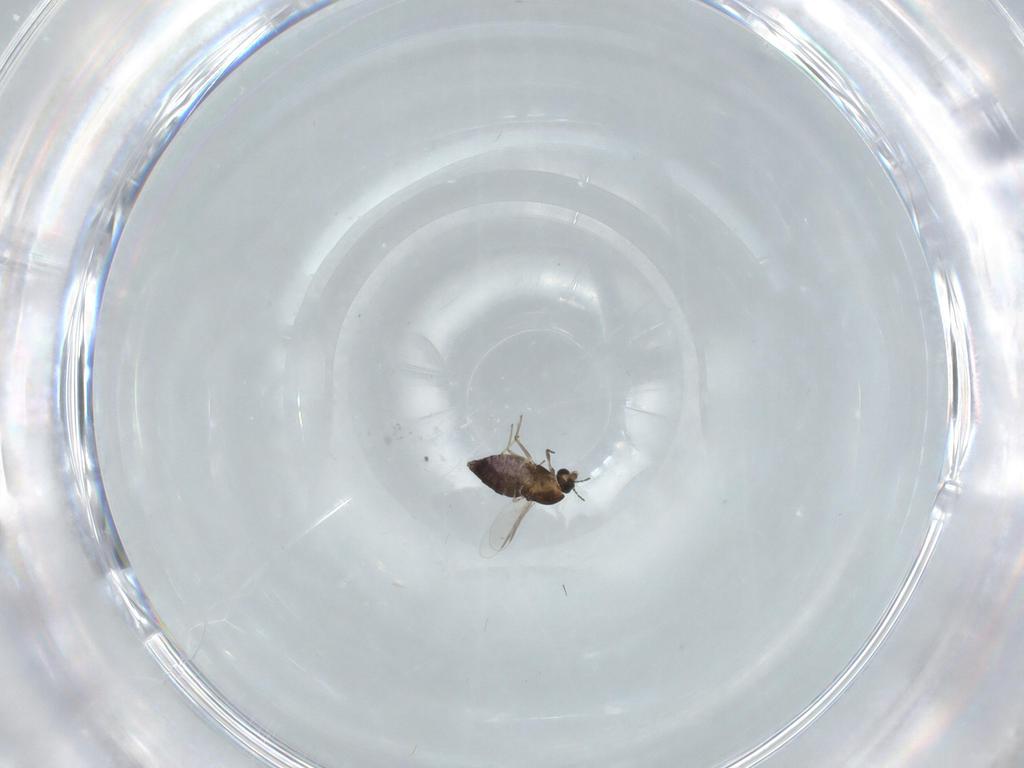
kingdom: Animalia
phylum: Arthropoda
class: Insecta
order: Diptera
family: Chironomidae
